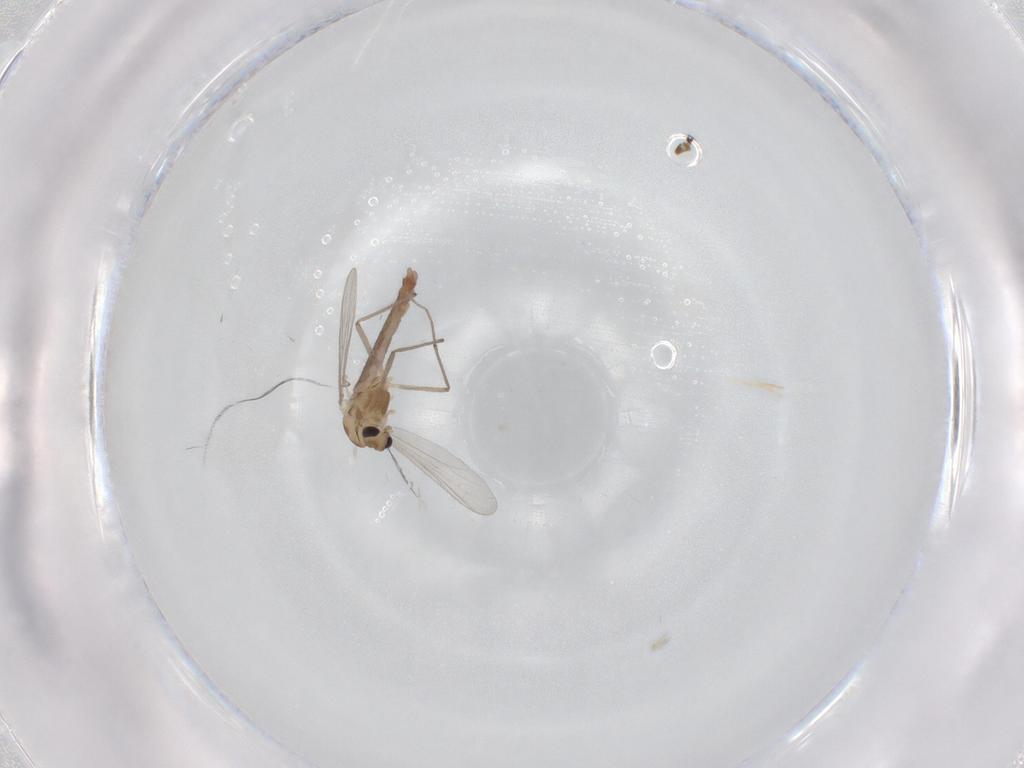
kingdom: Animalia
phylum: Arthropoda
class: Insecta
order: Diptera
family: Chironomidae
